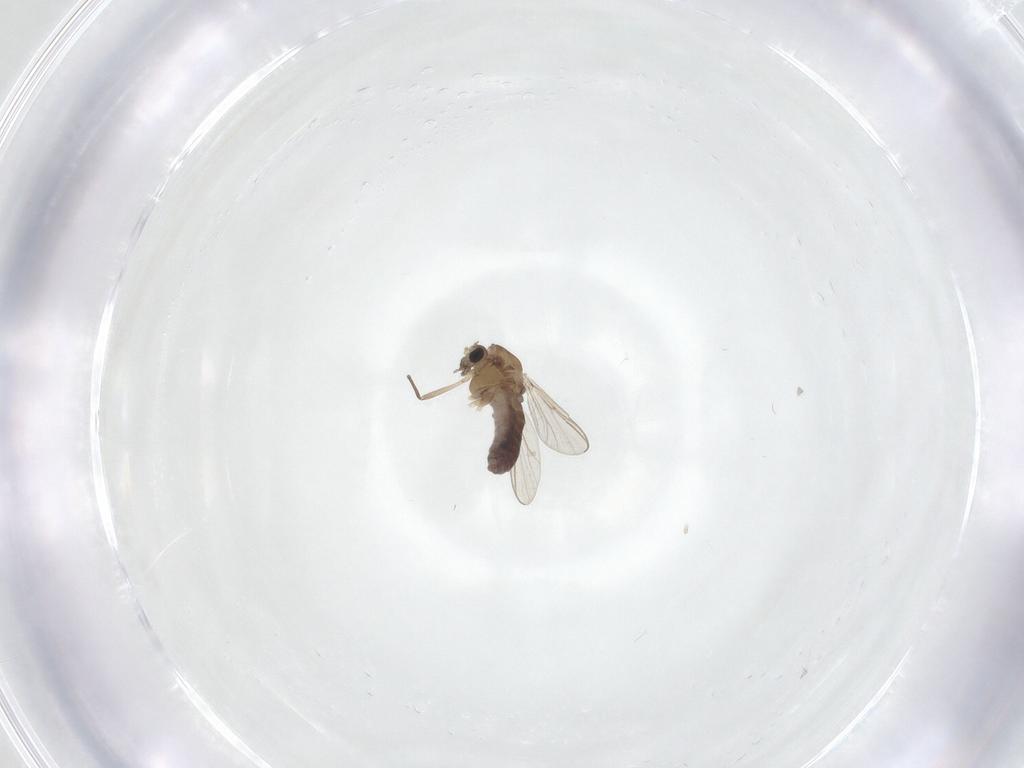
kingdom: Animalia
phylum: Arthropoda
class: Insecta
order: Diptera
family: Chironomidae
